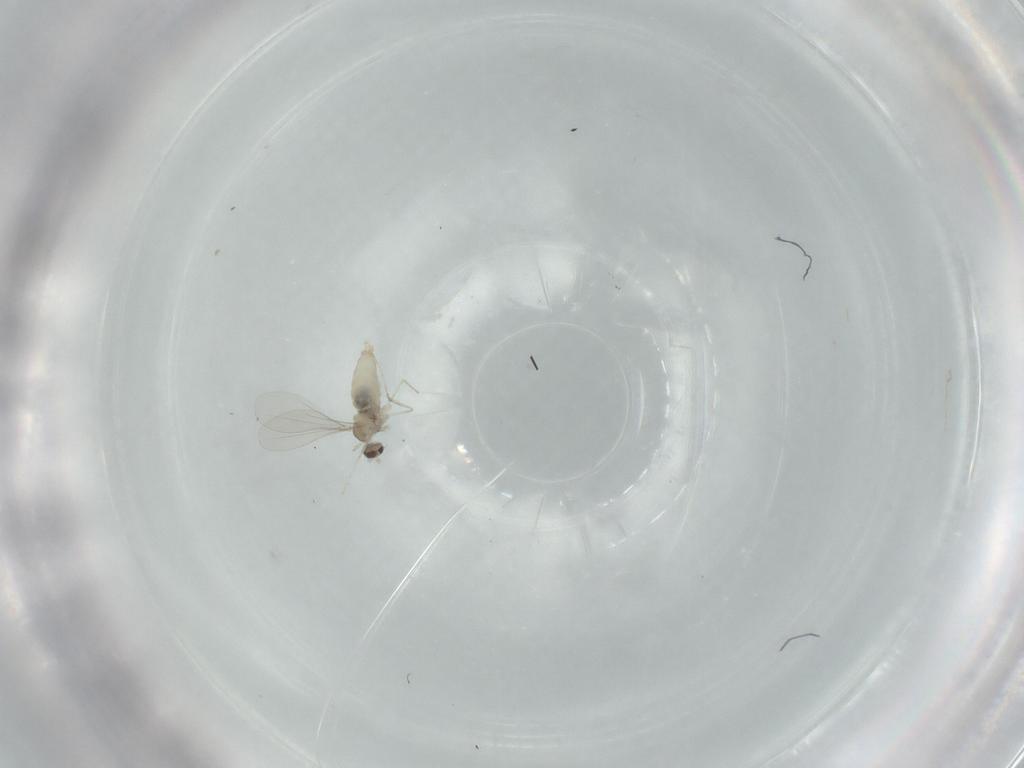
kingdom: Animalia
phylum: Arthropoda
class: Insecta
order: Diptera
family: Cecidomyiidae
